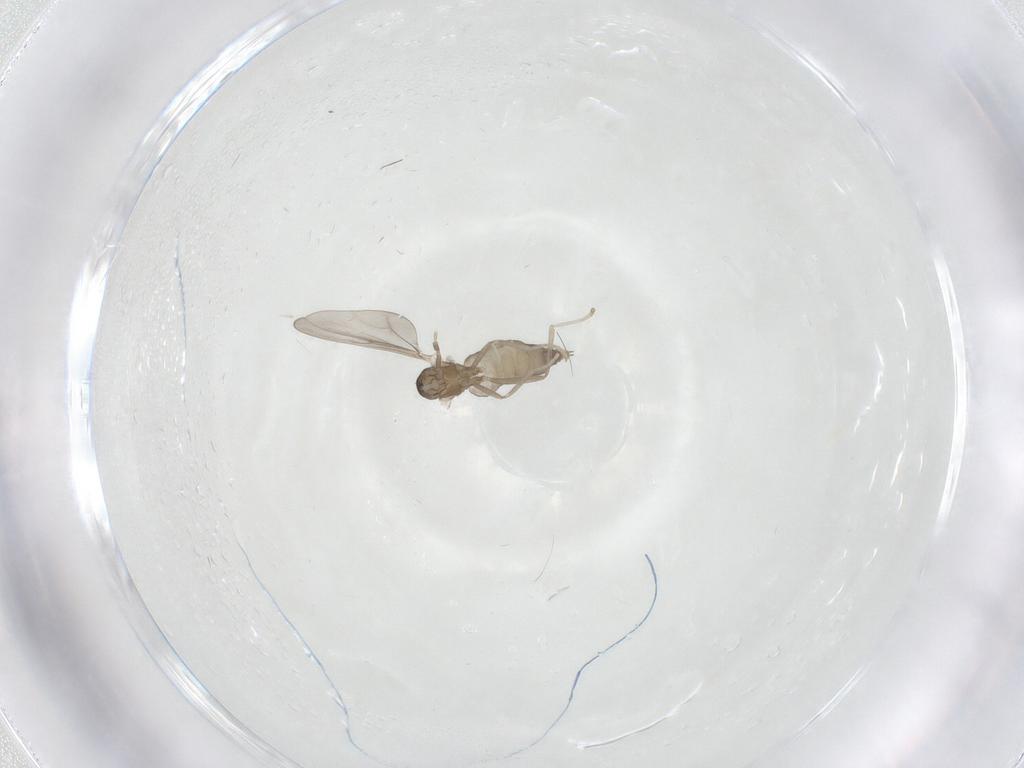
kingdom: Animalia
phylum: Arthropoda
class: Insecta
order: Diptera
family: Cecidomyiidae
